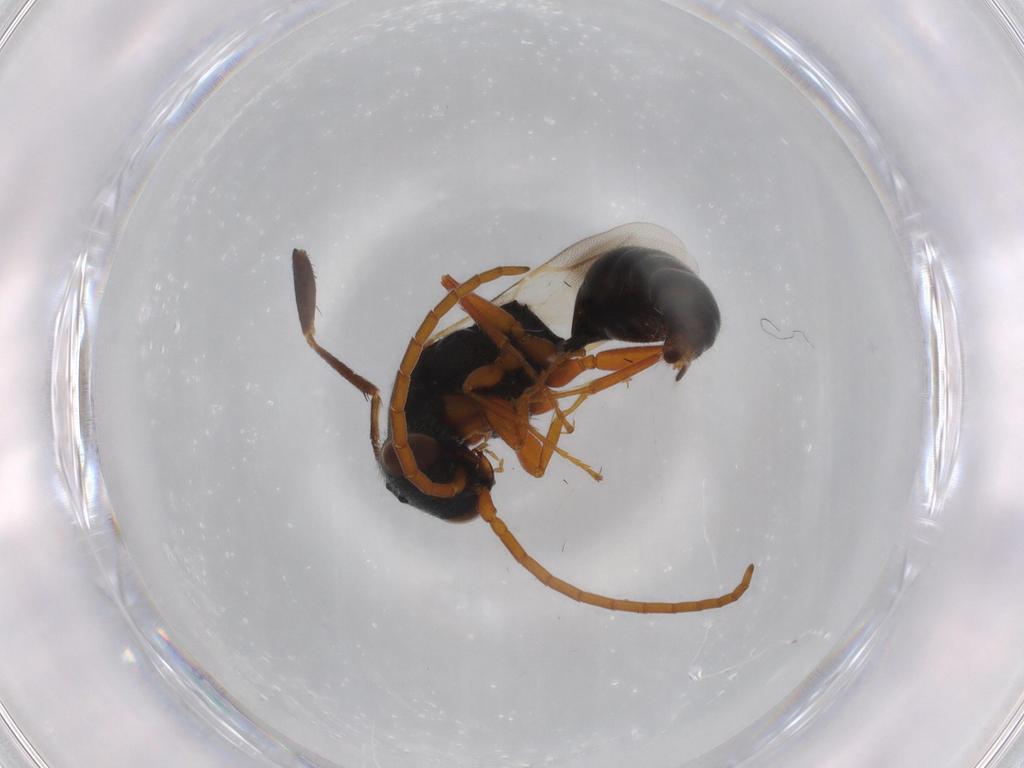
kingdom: Animalia
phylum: Arthropoda
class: Insecta
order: Hymenoptera
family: Bethylidae
